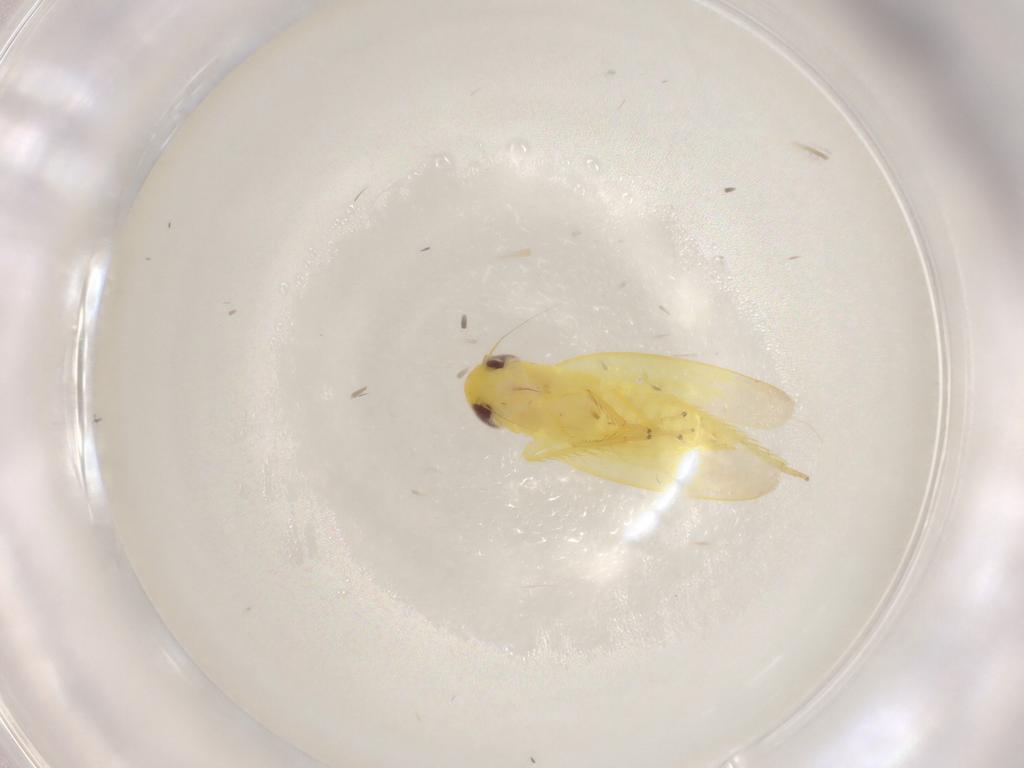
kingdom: Animalia
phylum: Arthropoda
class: Insecta
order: Hemiptera
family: Cicadellidae
